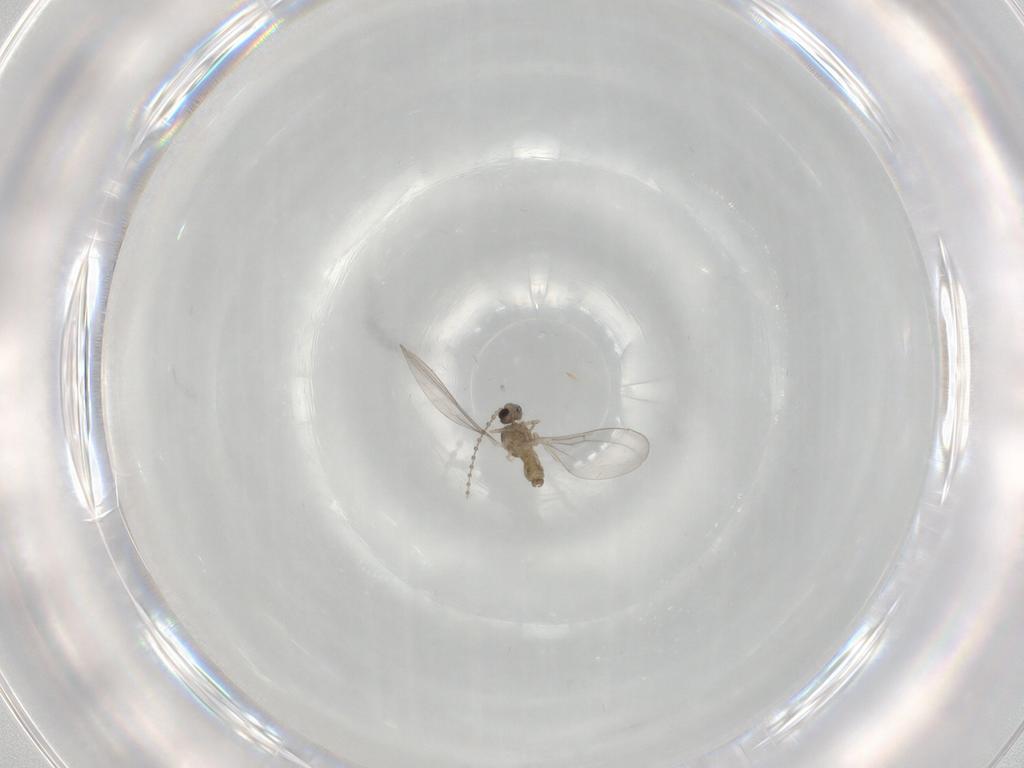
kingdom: Animalia
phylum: Arthropoda
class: Insecta
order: Diptera
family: Cecidomyiidae
